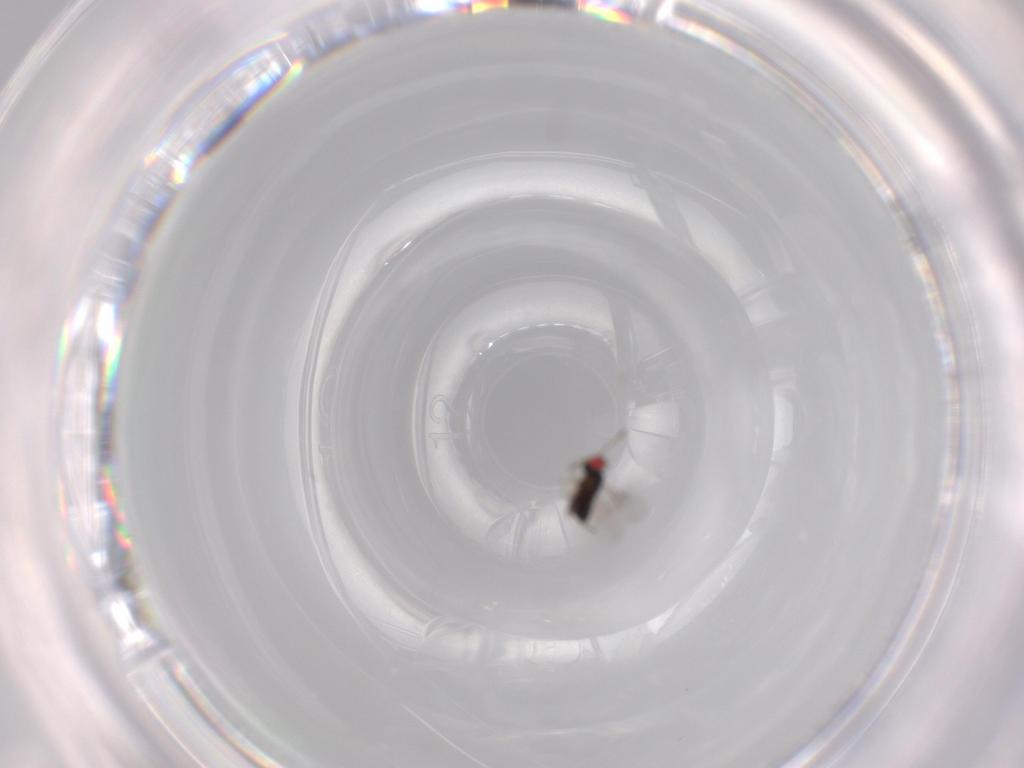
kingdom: Animalia
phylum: Arthropoda
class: Insecta
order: Hymenoptera
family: Azotidae
